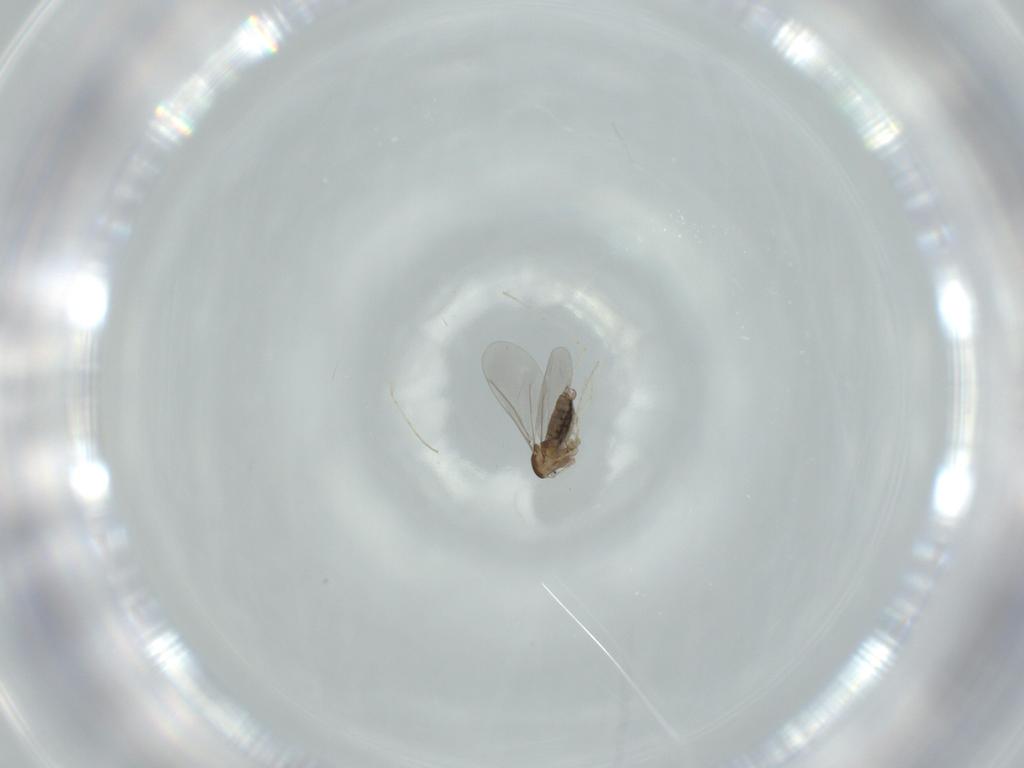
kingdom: Animalia
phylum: Arthropoda
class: Insecta
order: Diptera
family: Cecidomyiidae
